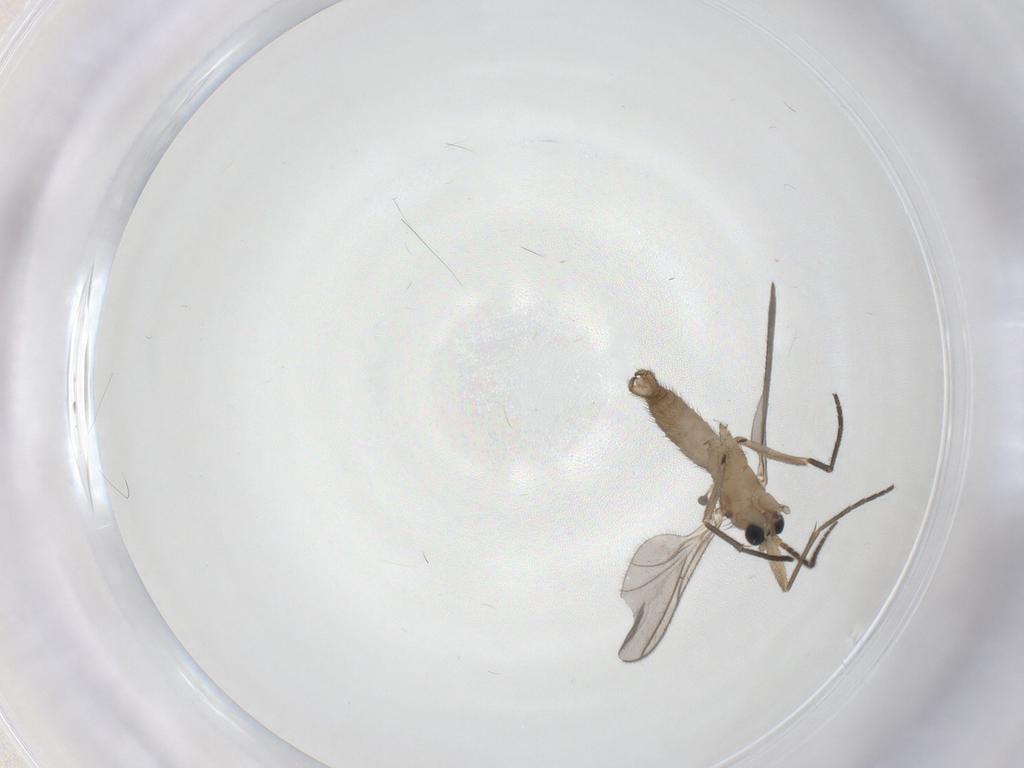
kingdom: Animalia
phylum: Arthropoda
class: Insecta
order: Diptera
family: Sciaridae
